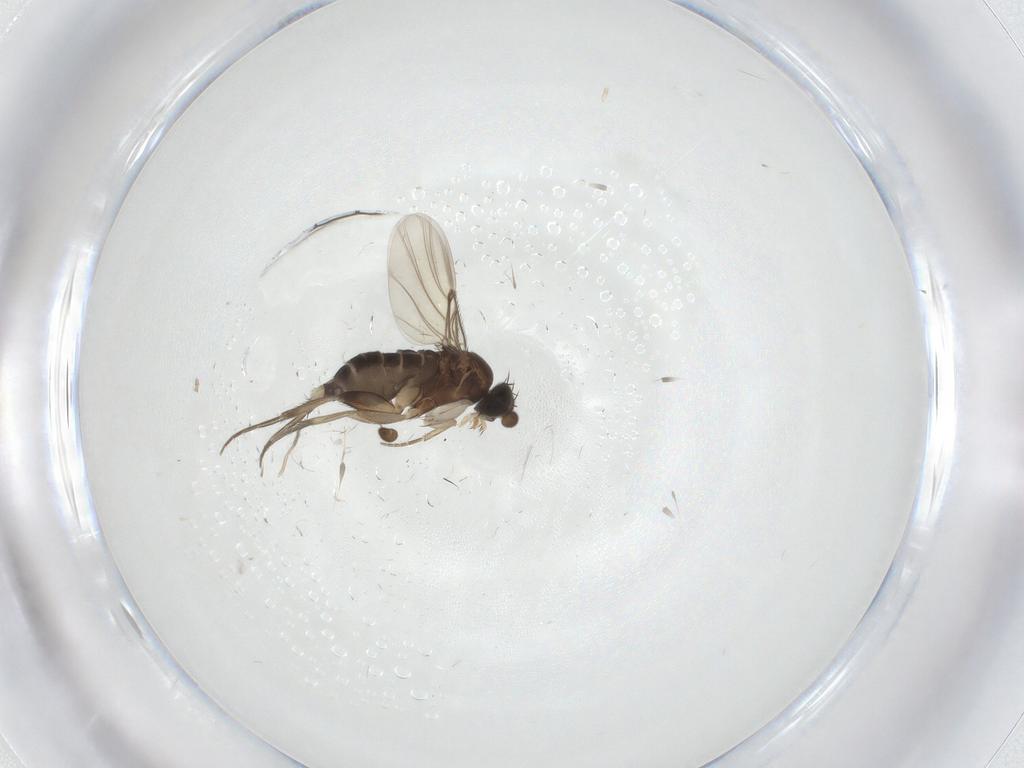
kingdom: Animalia
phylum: Arthropoda
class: Insecta
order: Diptera
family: Phoridae
